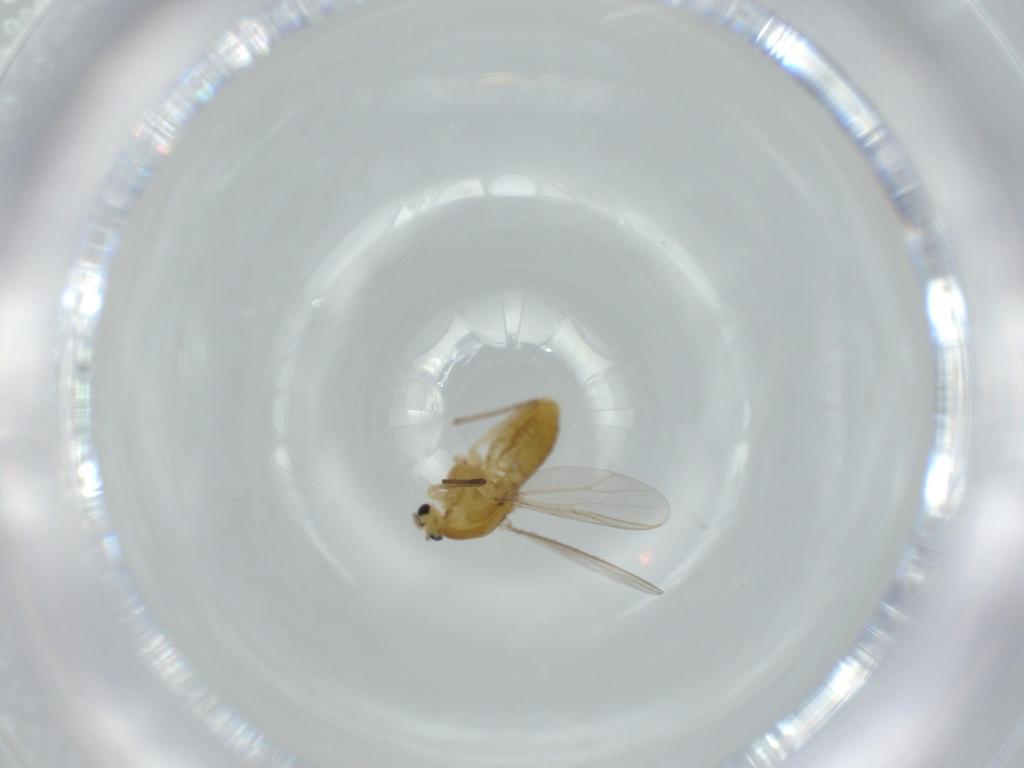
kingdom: Animalia
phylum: Arthropoda
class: Insecta
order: Diptera
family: Chironomidae
